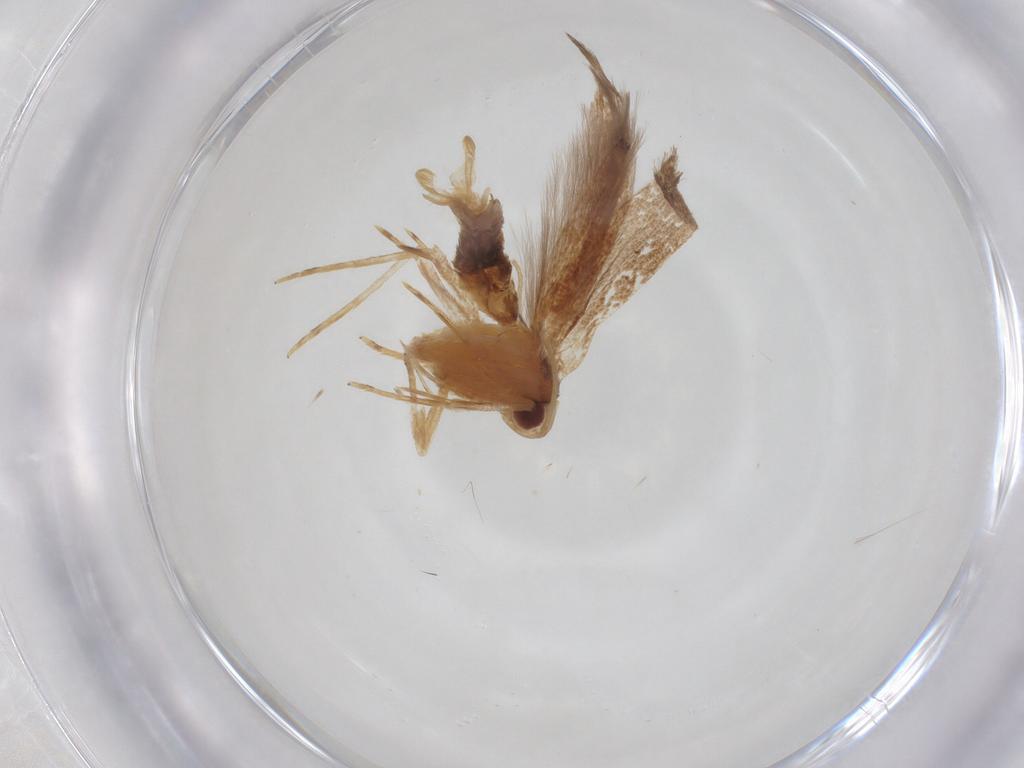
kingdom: Animalia
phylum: Arthropoda
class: Insecta
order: Lepidoptera
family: Cosmopterigidae
